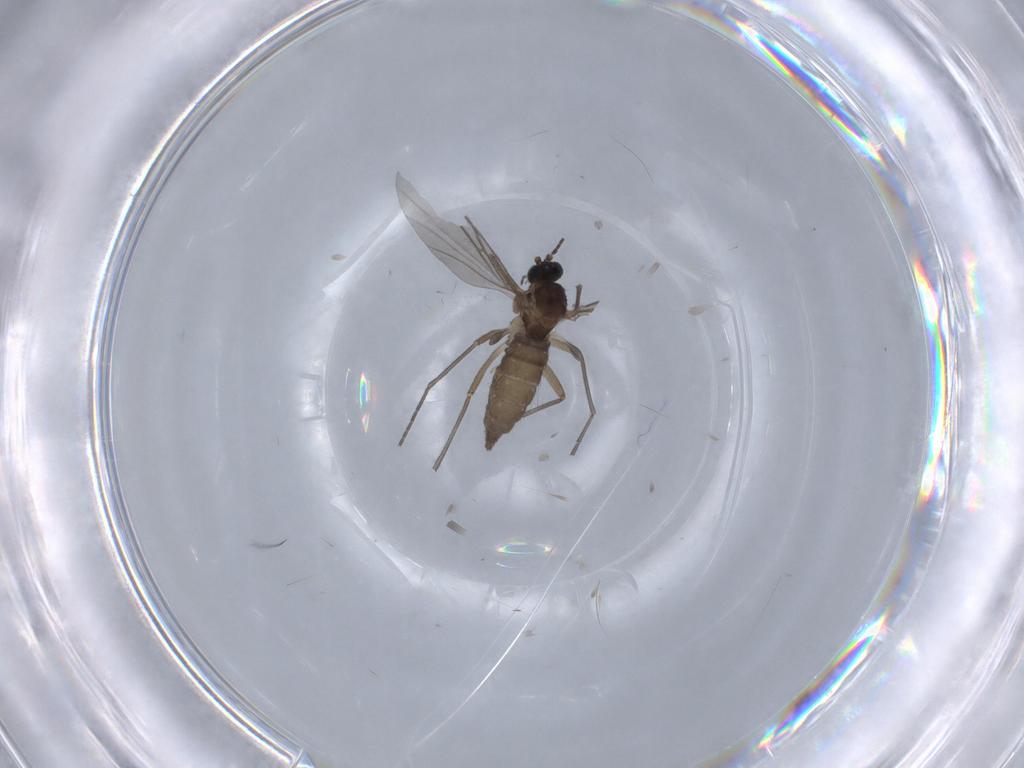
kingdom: Animalia
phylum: Arthropoda
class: Insecta
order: Diptera
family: Sciaridae
